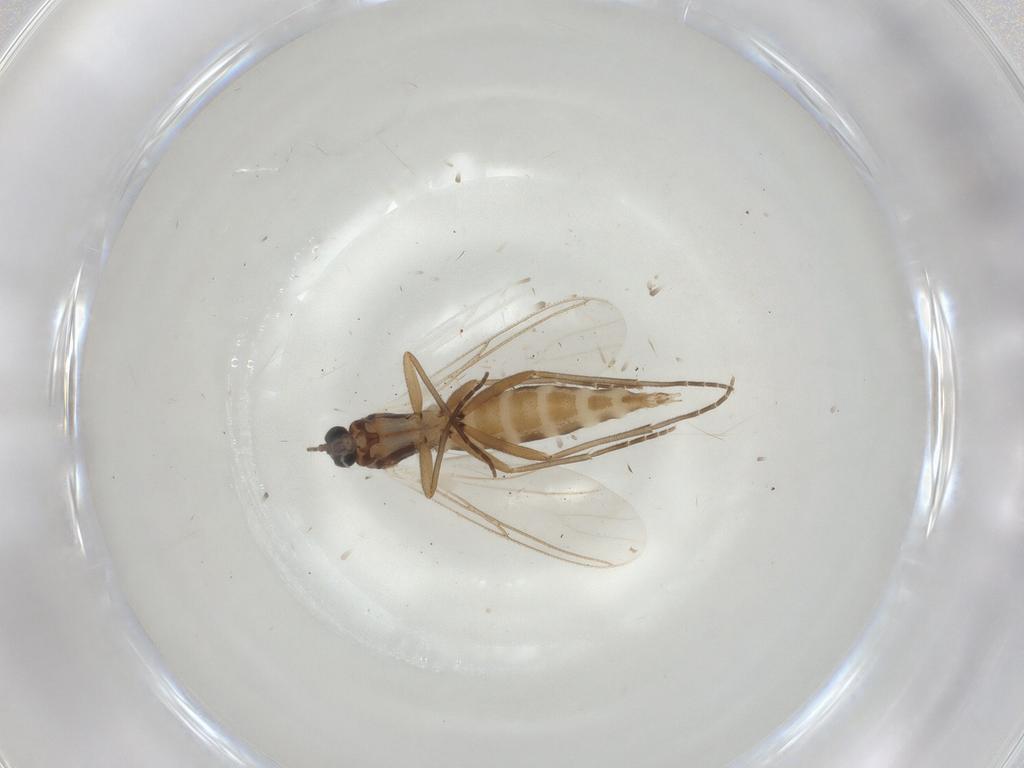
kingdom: Animalia
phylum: Arthropoda
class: Insecta
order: Diptera
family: Sciaridae
